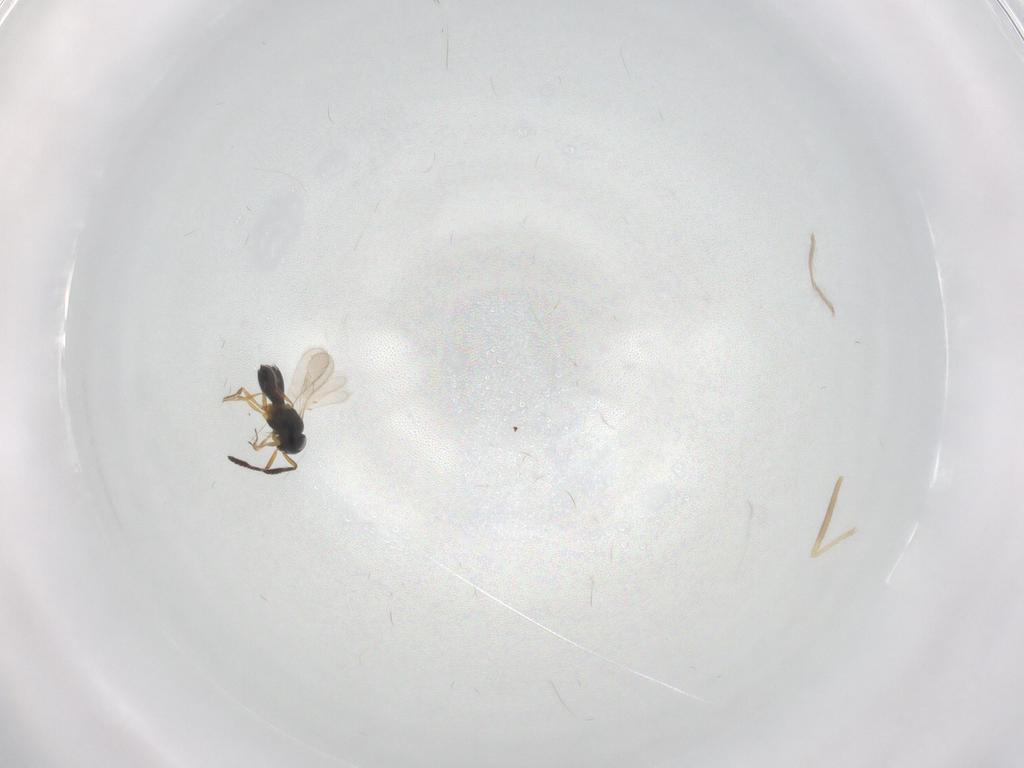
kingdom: Animalia
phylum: Arthropoda
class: Insecta
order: Hymenoptera
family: Scelionidae
